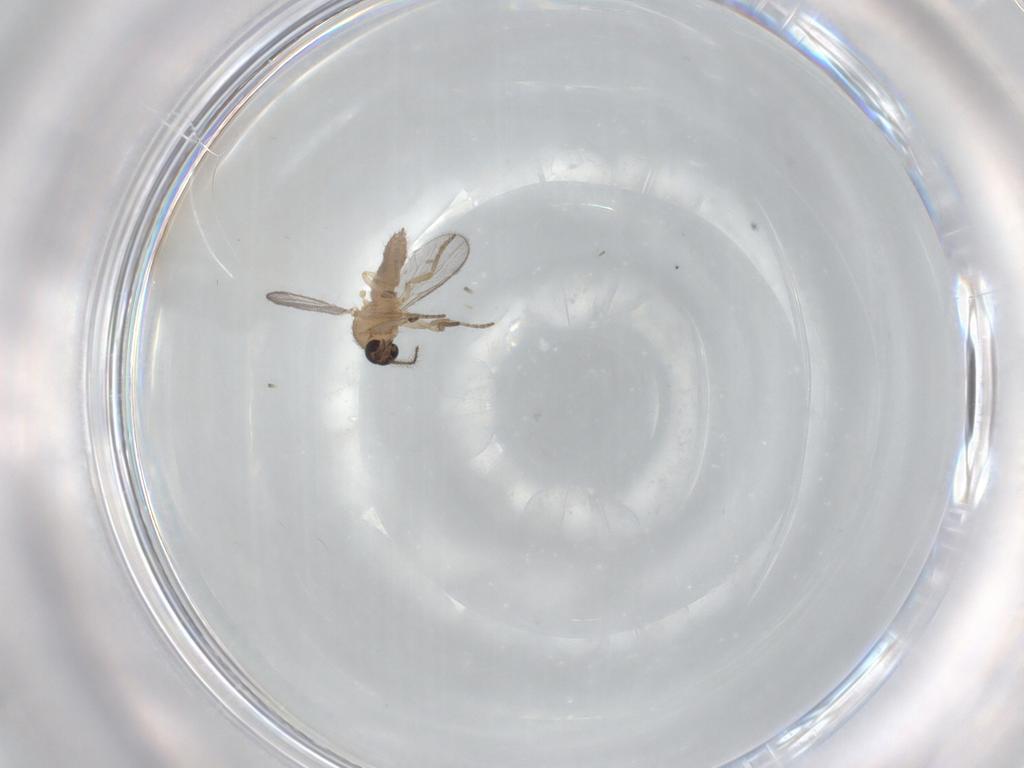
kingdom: Animalia
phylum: Arthropoda
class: Insecta
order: Diptera
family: Ceratopogonidae
